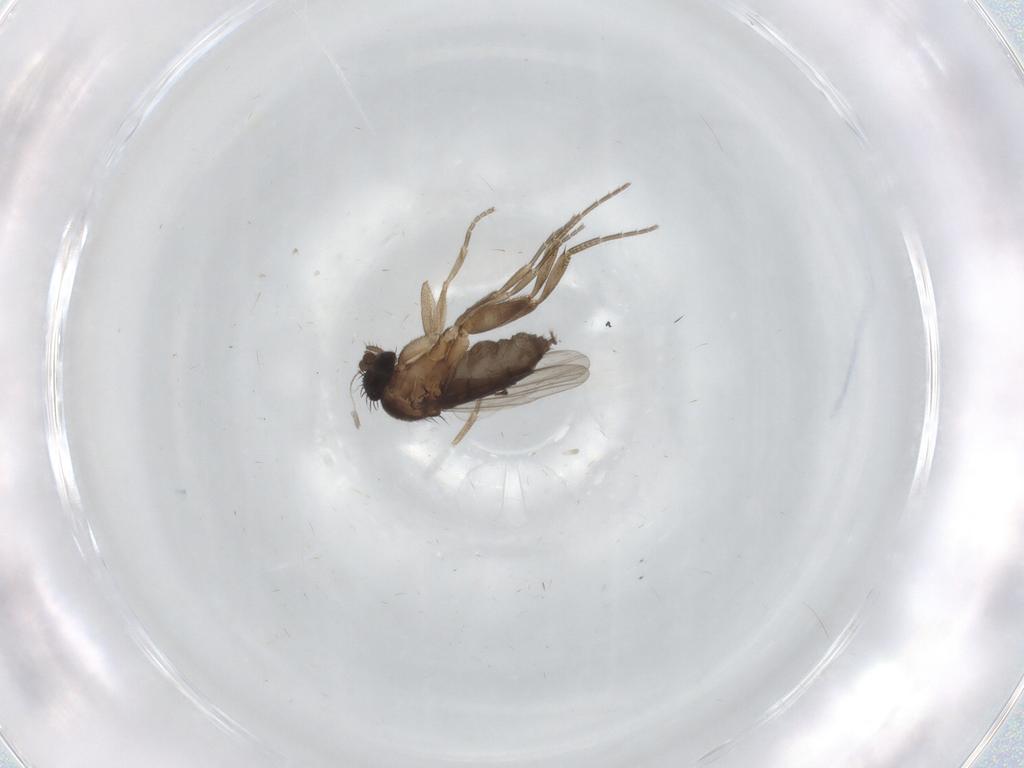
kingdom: Animalia
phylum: Arthropoda
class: Insecta
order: Diptera
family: Phoridae
